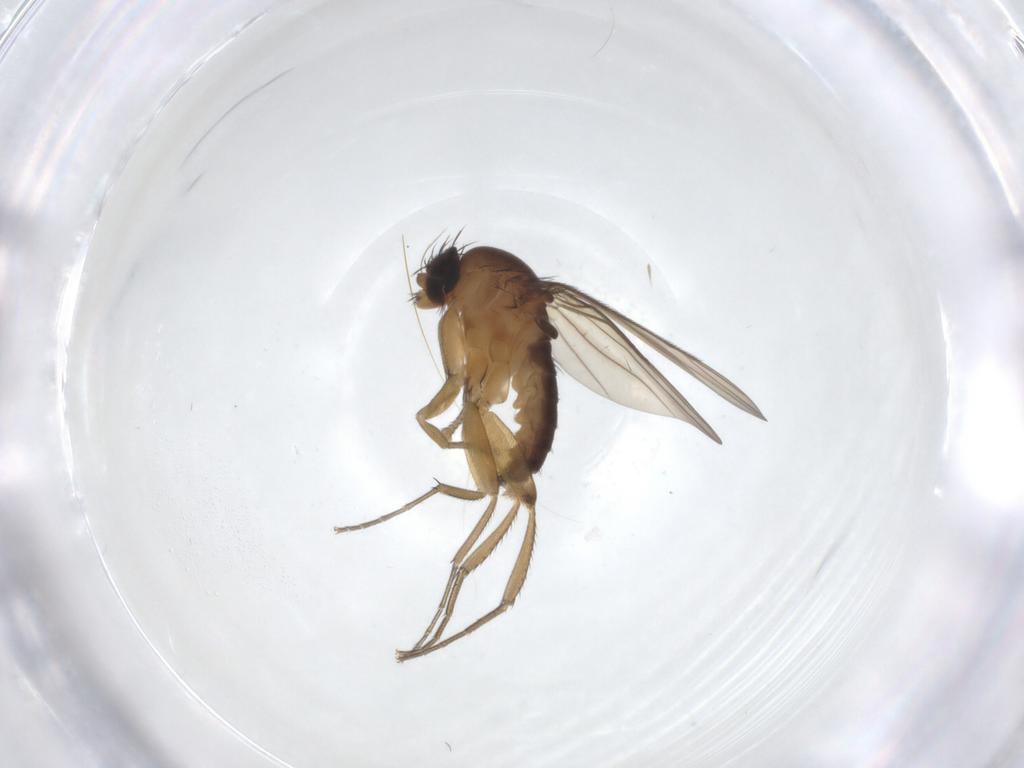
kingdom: Animalia
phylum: Arthropoda
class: Insecta
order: Diptera
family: Phoridae
